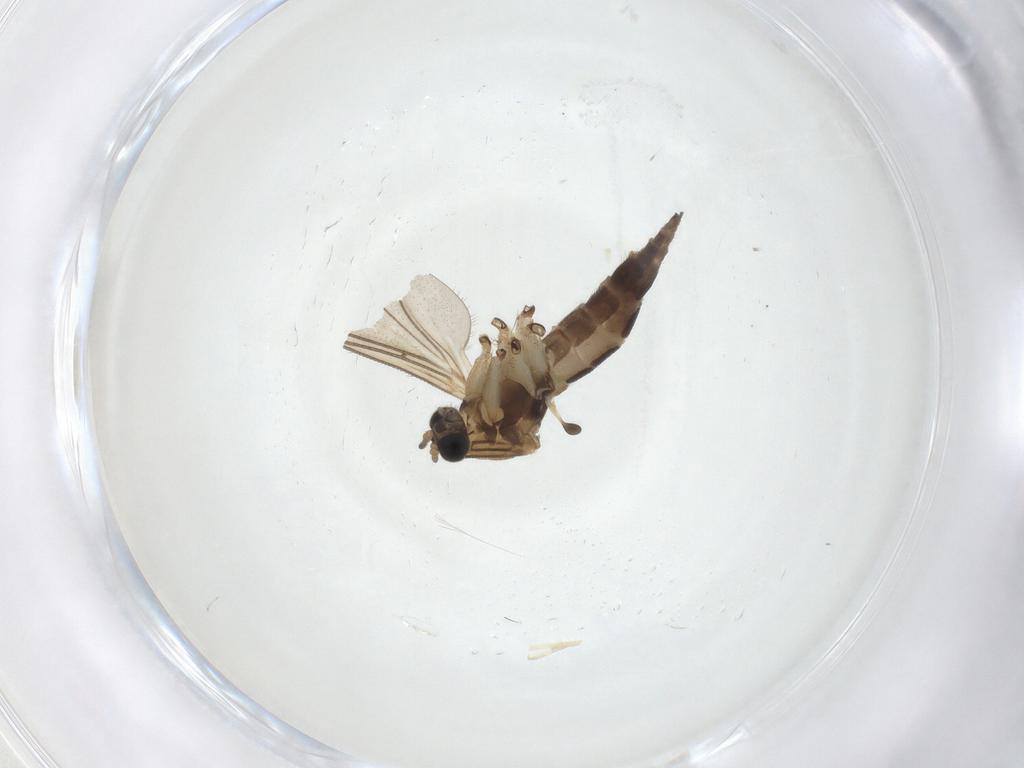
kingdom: Animalia
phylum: Arthropoda
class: Insecta
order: Diptera
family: Sciaridae
